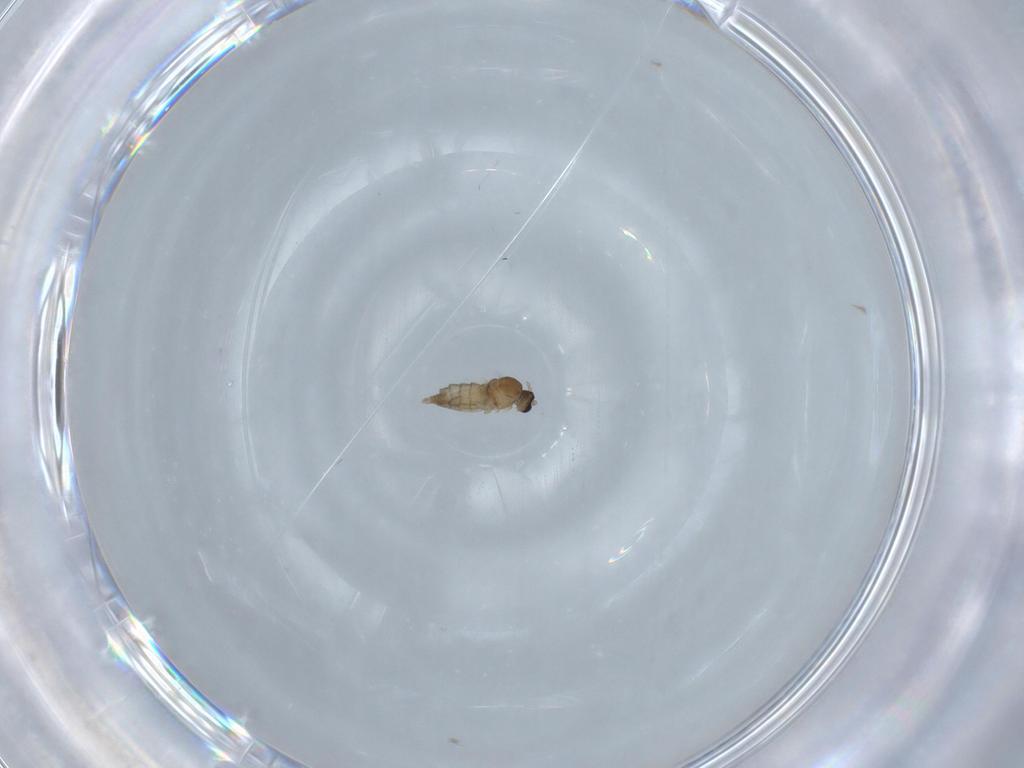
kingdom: Animalia
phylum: Arthropoda
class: Insecta
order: Diptera
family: Cecidomyiidae
